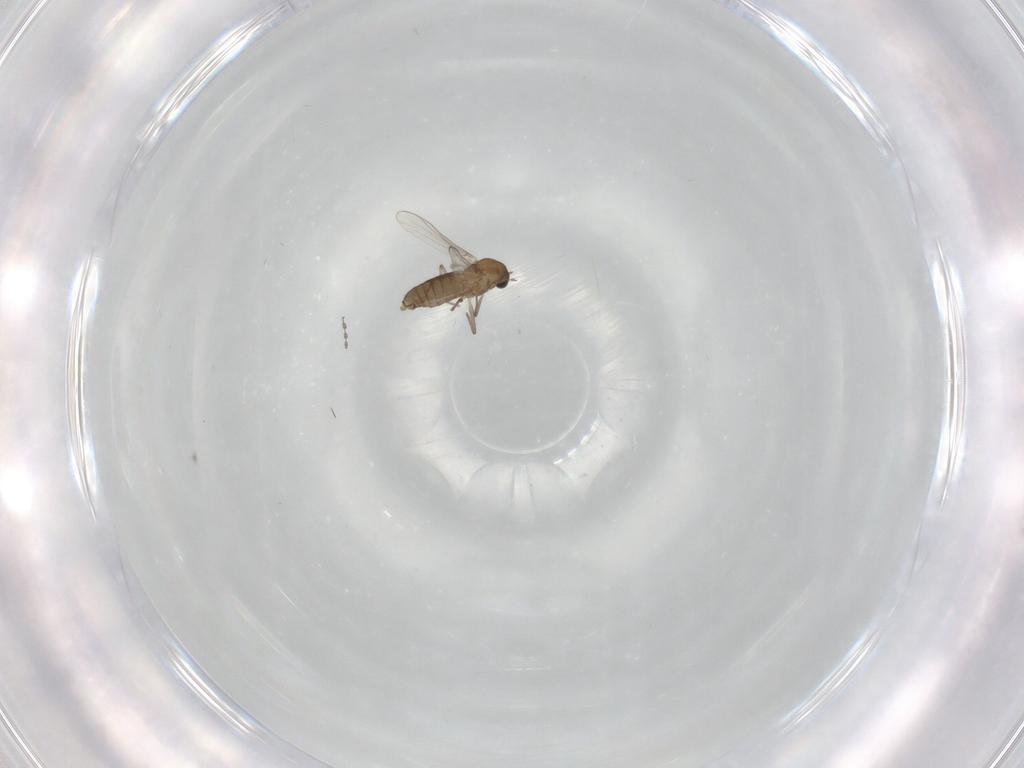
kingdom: Animalia
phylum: Arthropoda
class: Insecta
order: Diptera
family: Chironomidae
